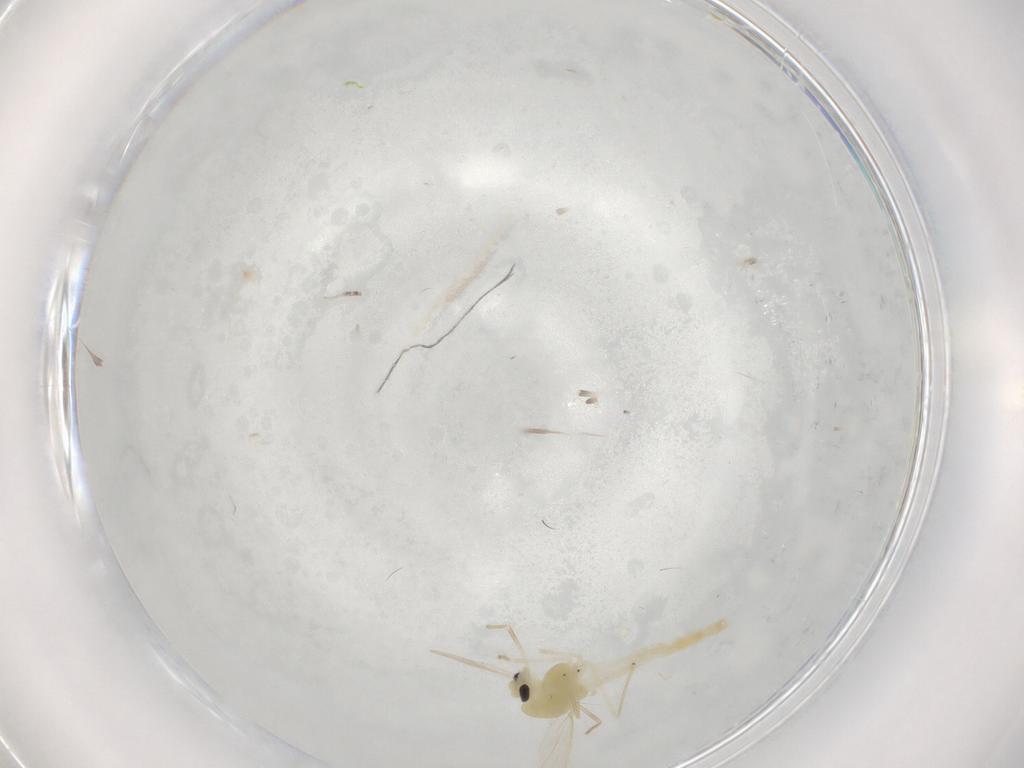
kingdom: Animalia
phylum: Arthropoda
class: Insecta
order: Diptera
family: Chironomidae
